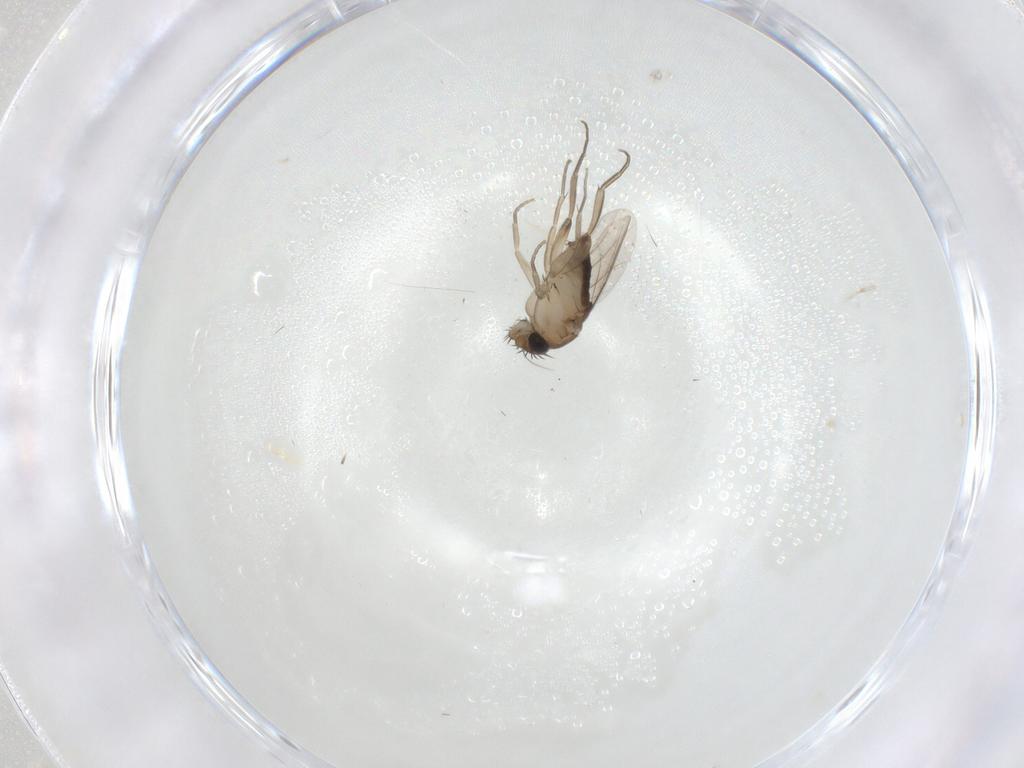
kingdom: Animalia
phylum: Arthropoda
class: Insecta
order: Diptera
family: Phoridae
